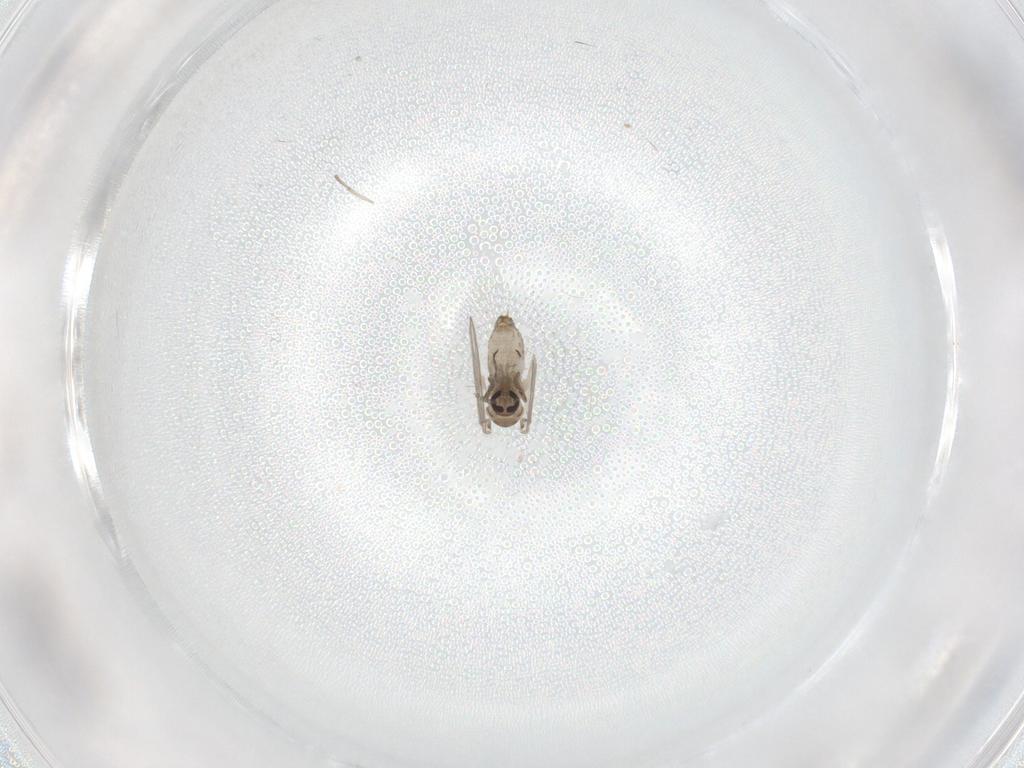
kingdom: Animalia
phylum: Arthropoda
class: Insecta
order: Diptera
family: Psychodidae
